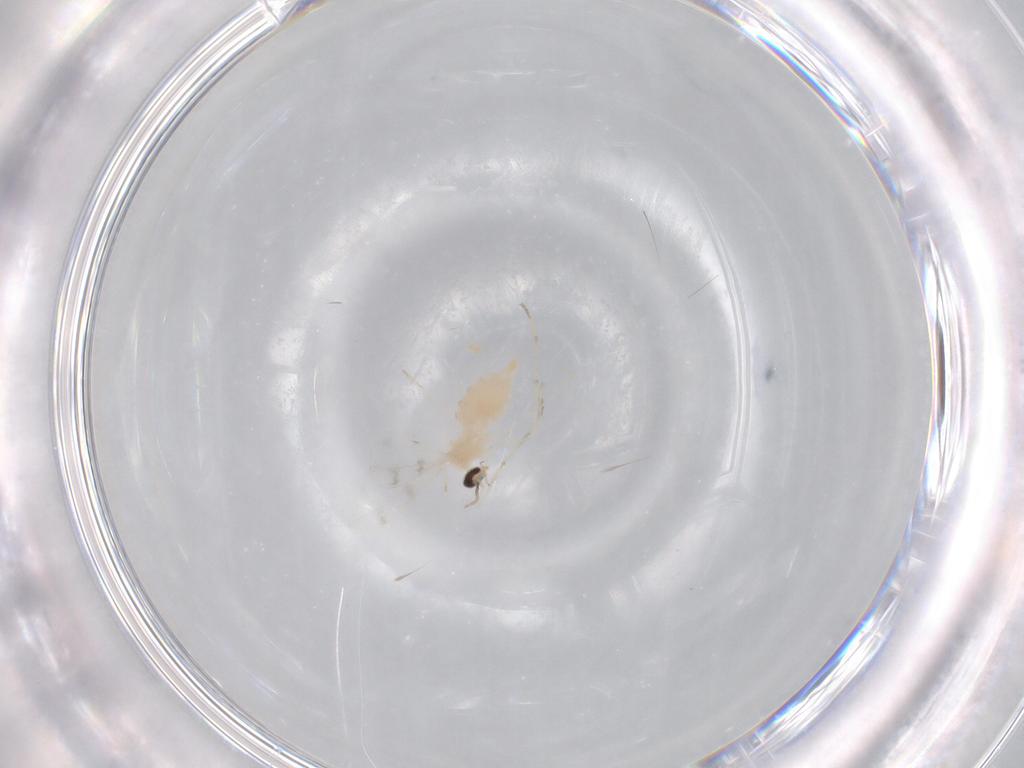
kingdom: Animalia
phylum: Arthropoda
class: Insecta
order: Diptera
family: Cecidomyiidae
